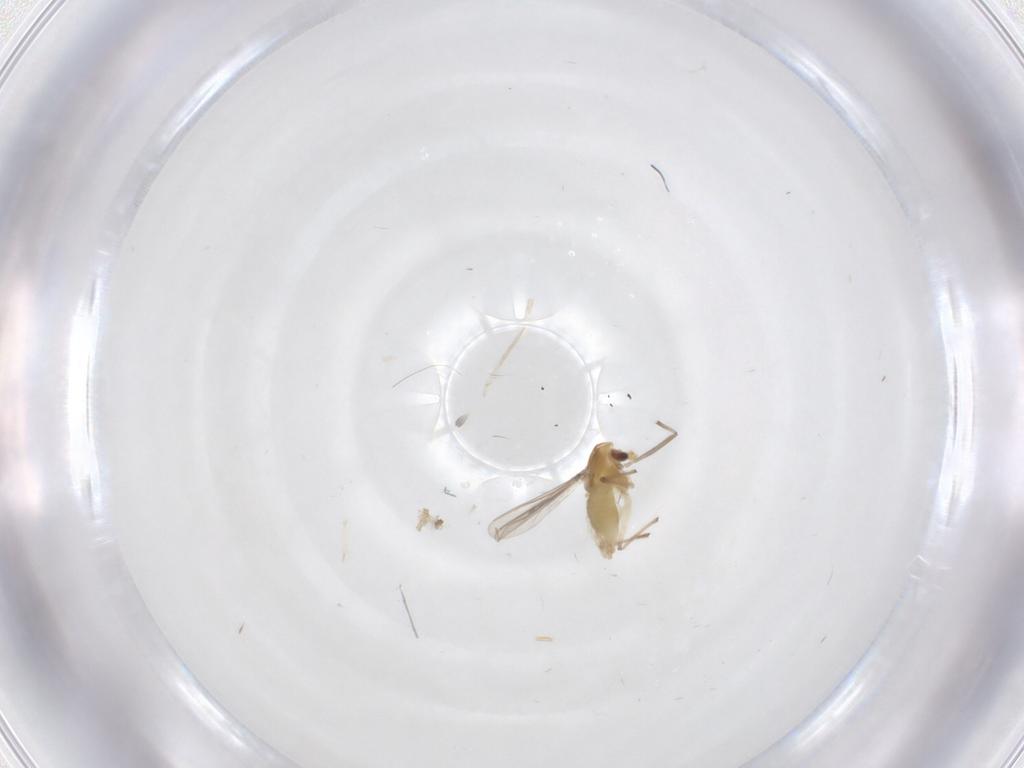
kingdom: Animalia
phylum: Arthropoda
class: Insecta
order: Diptera
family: Chironomidae
